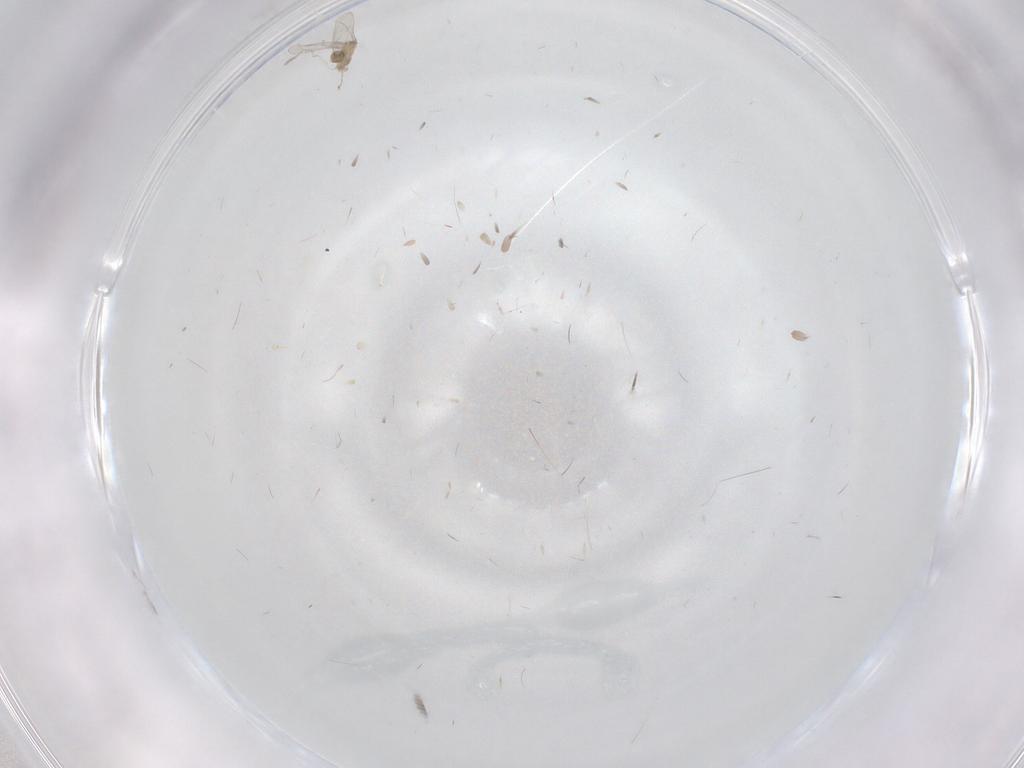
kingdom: Animalia
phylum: Arthropoda
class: Insecta
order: Diptera
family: Cecidomyiidae
